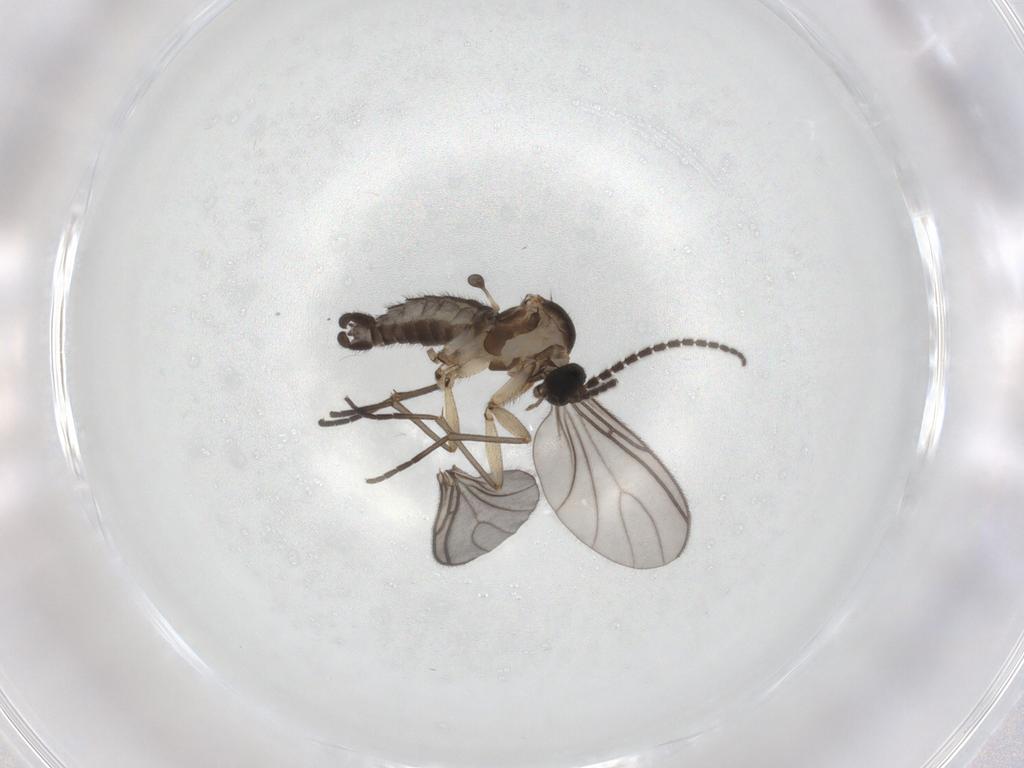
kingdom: Animalia
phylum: Arthropoda
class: Insecta
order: Diptera
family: Sciaridae
